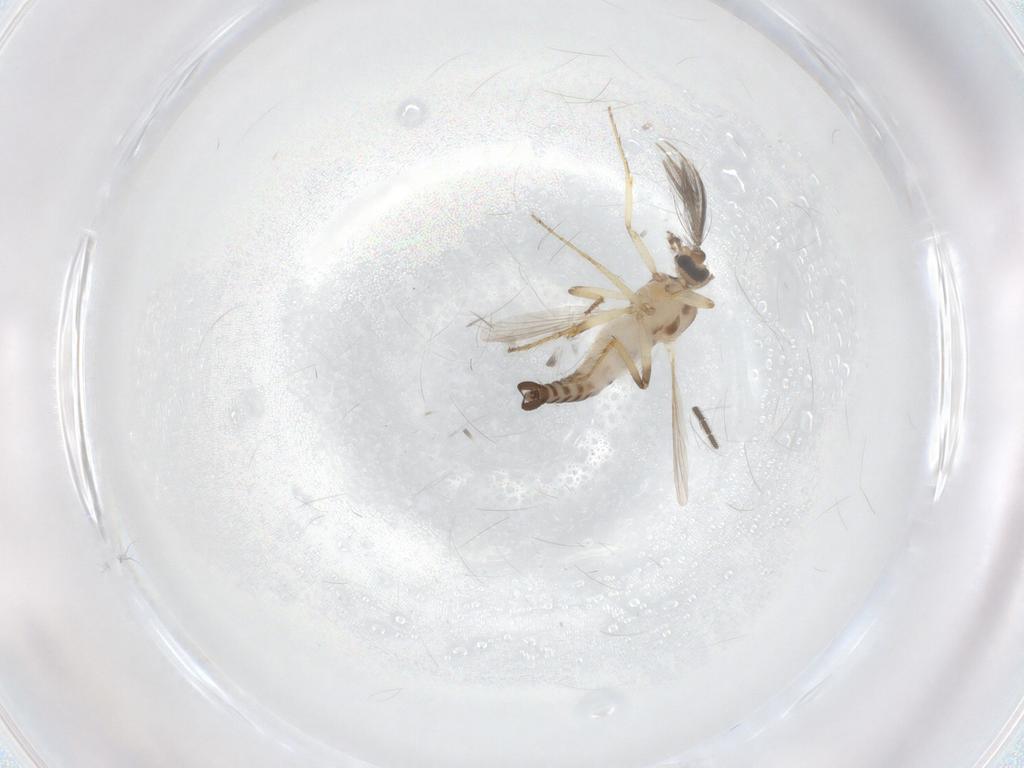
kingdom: Animalia
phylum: Arthropoda
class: Insecta
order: Diptera
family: Sciaridae
